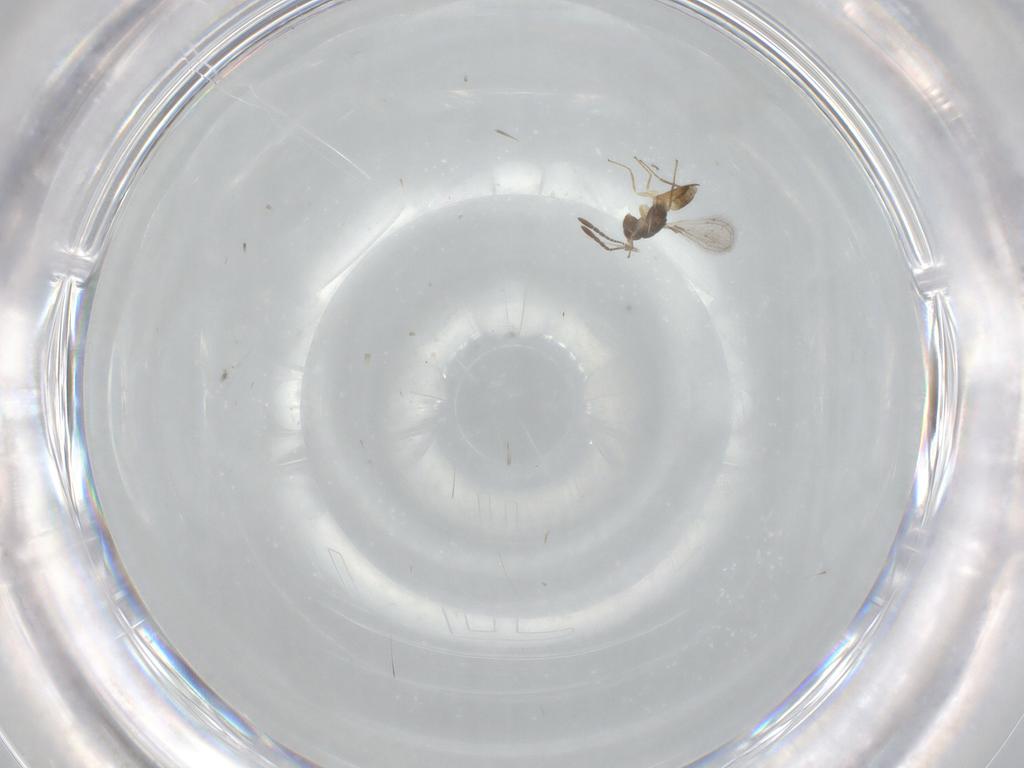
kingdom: Animalia
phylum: Arthropoda
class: Insecta
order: Hymenoptera
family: Mymaridae
